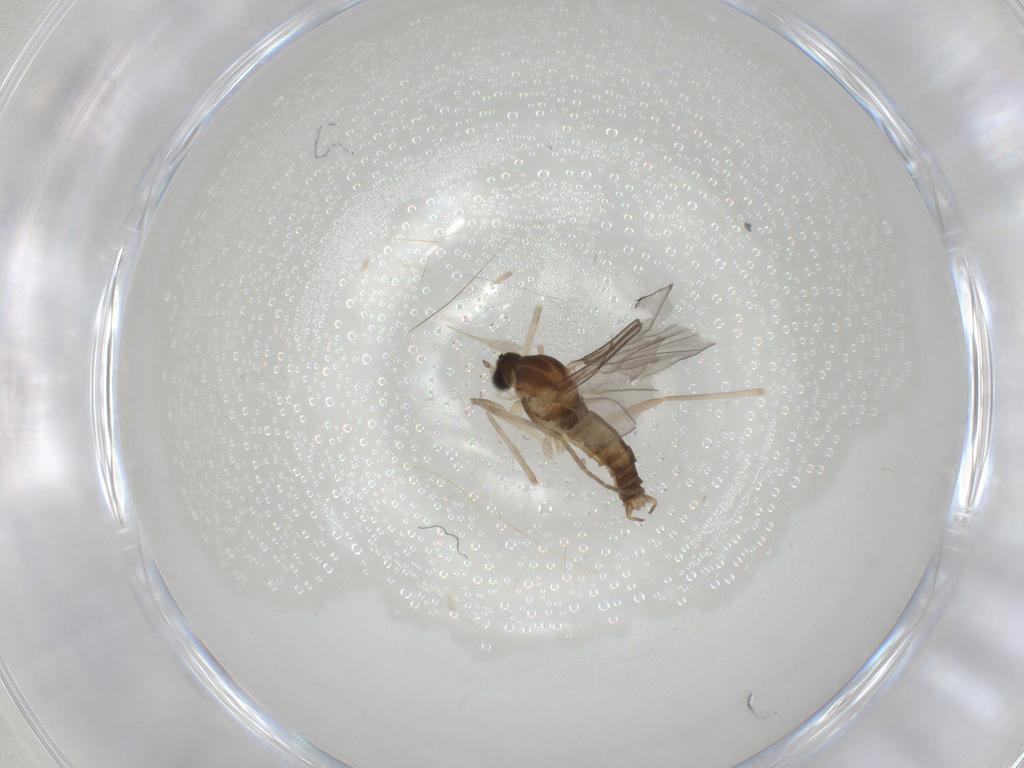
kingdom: Animalia
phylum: Arthropoda
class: Insecta
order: Diptera
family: Cecidomyiidae
